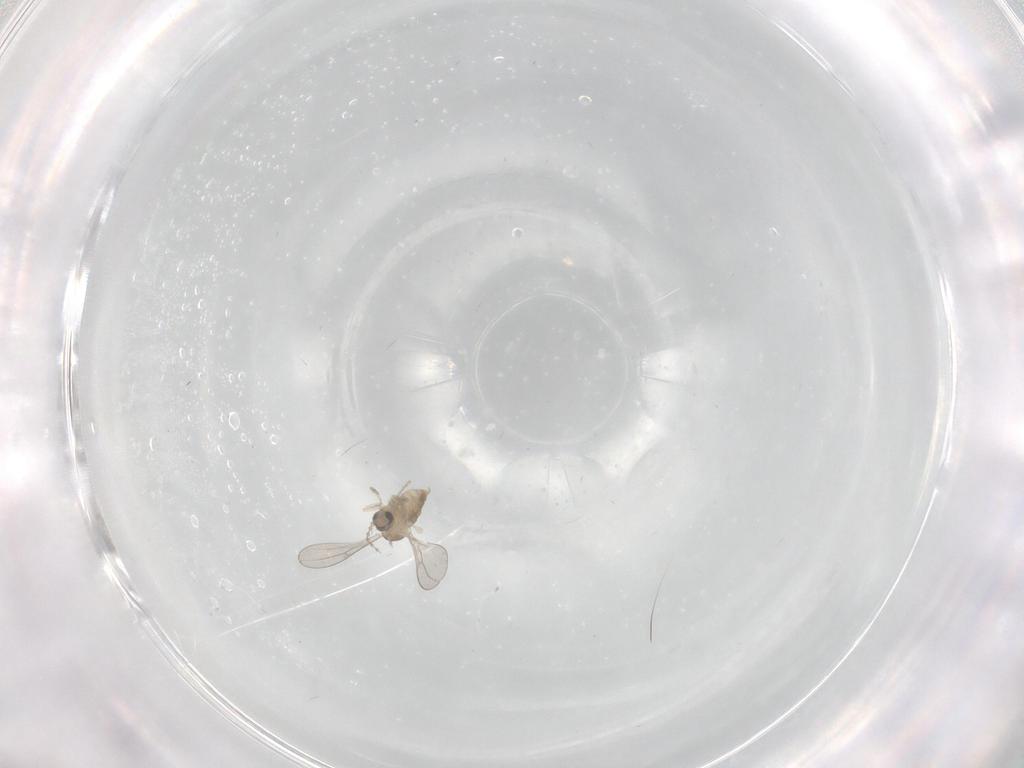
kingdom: Animalia
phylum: Arthropoda
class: Insecta
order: Diptera
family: Cecidomyiidae
